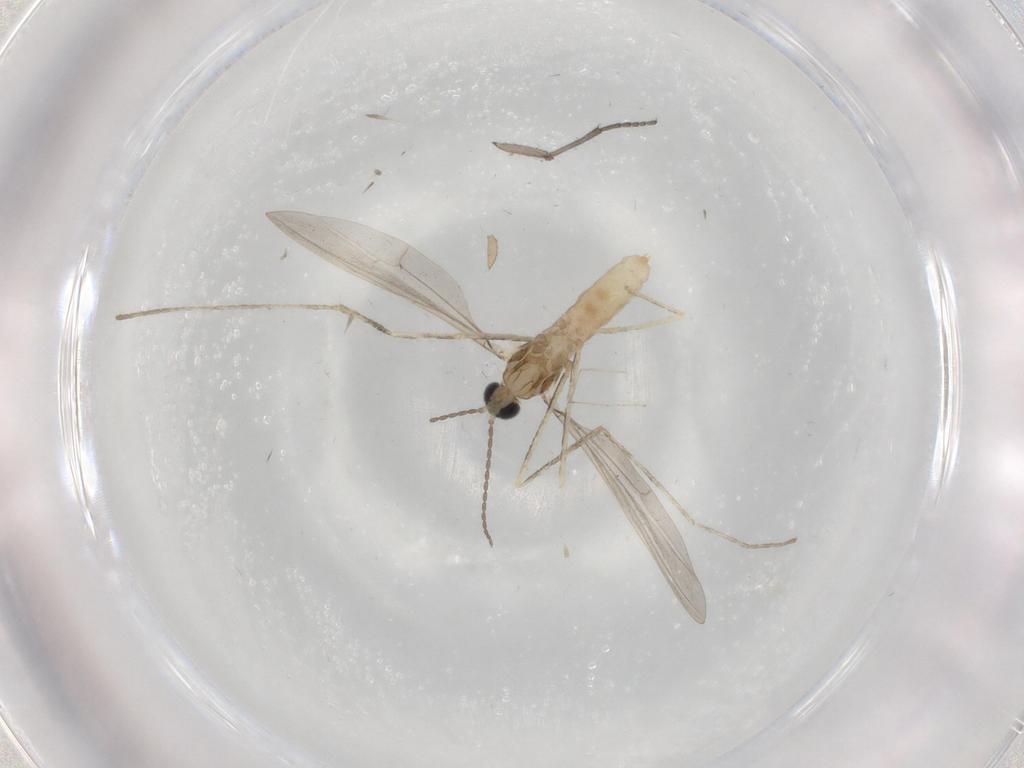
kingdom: Animalia
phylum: Arthropoda
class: Insecta
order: Diptera
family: Phoridae
